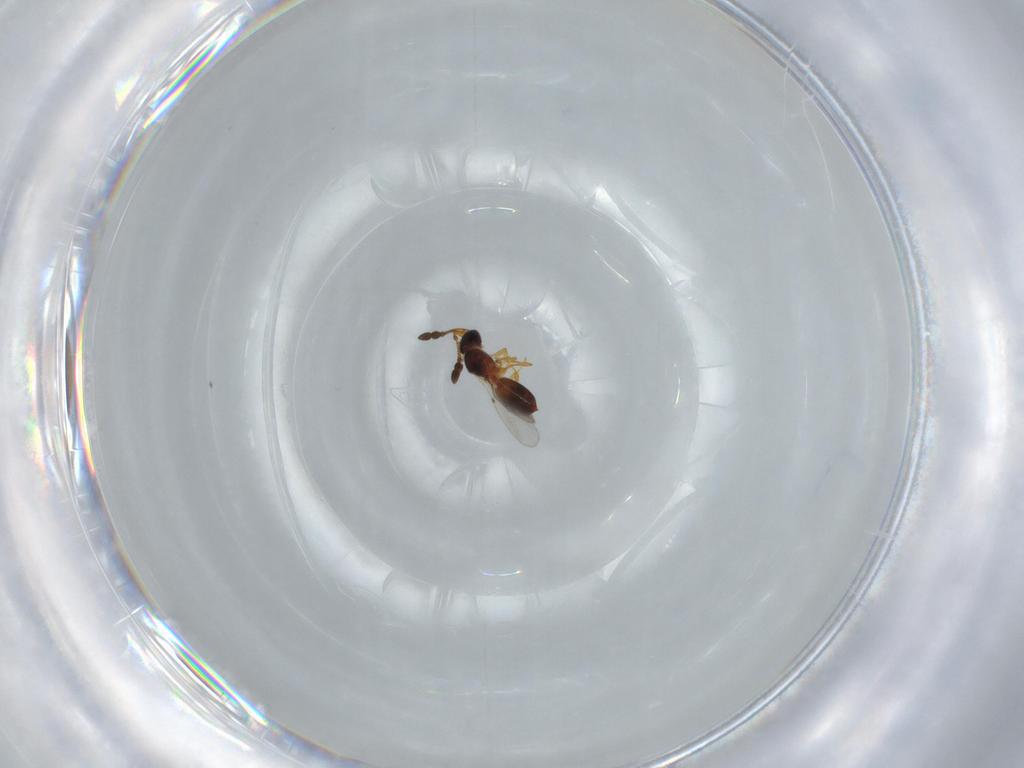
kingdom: Animalia
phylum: Arthropoda
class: Insecta
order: Hymenoptera
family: Diapriidae
